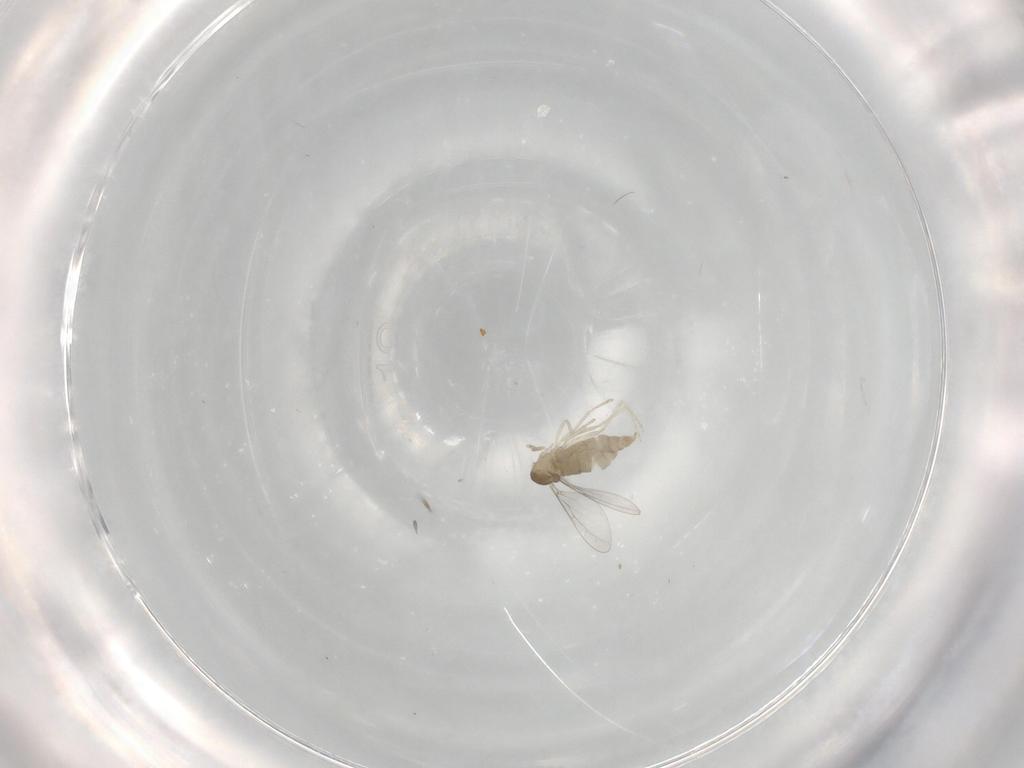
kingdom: Animalia
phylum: Arthropoda
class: Insecta
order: Diptera
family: Cecidomyiidae
